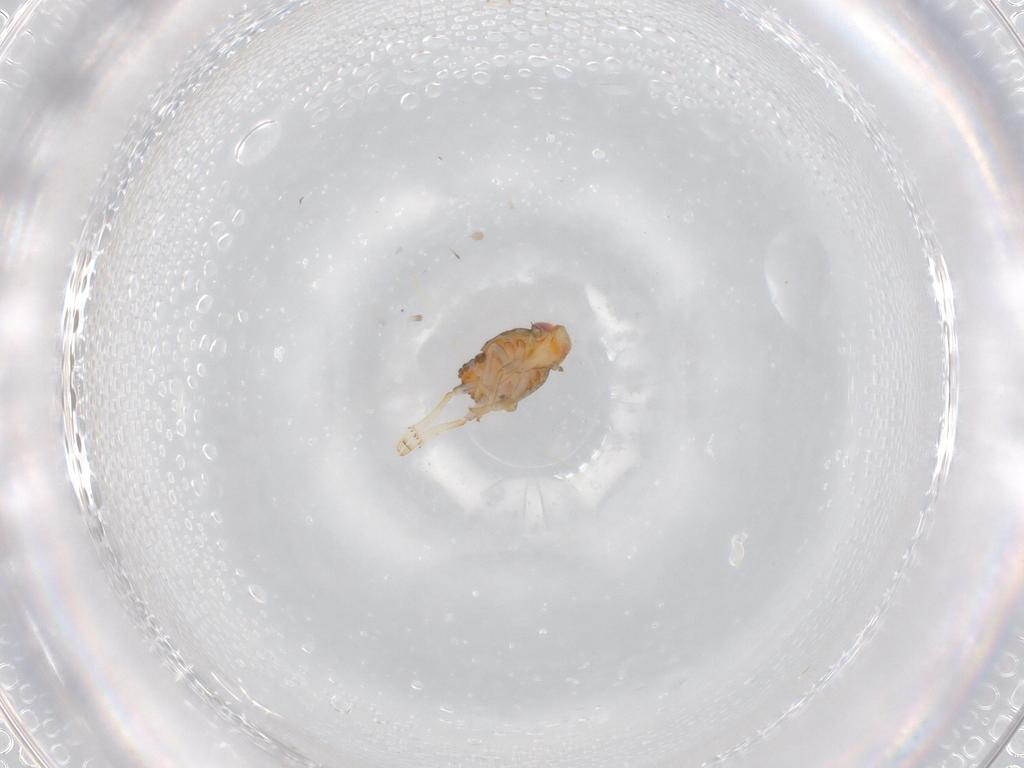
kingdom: Animalia
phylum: Arthropoda
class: Insecta
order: Hemiptera
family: Issidae
